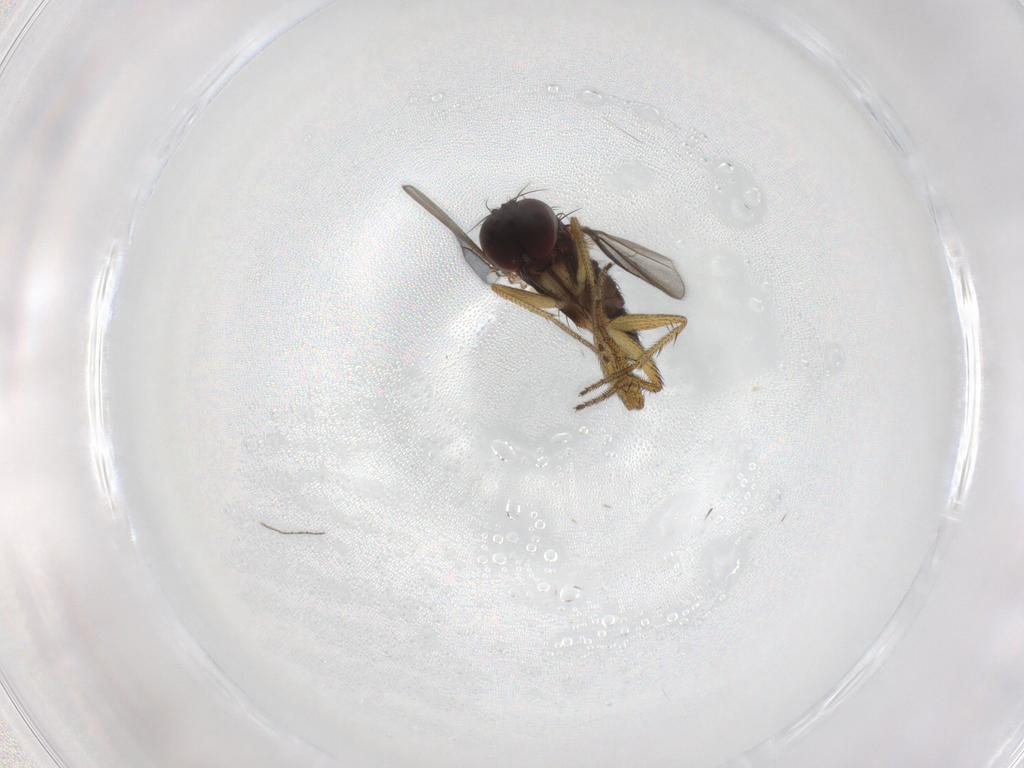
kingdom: Animalia
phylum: Arthropoda
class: Insecta
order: Diptera
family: Dolichopodidae
